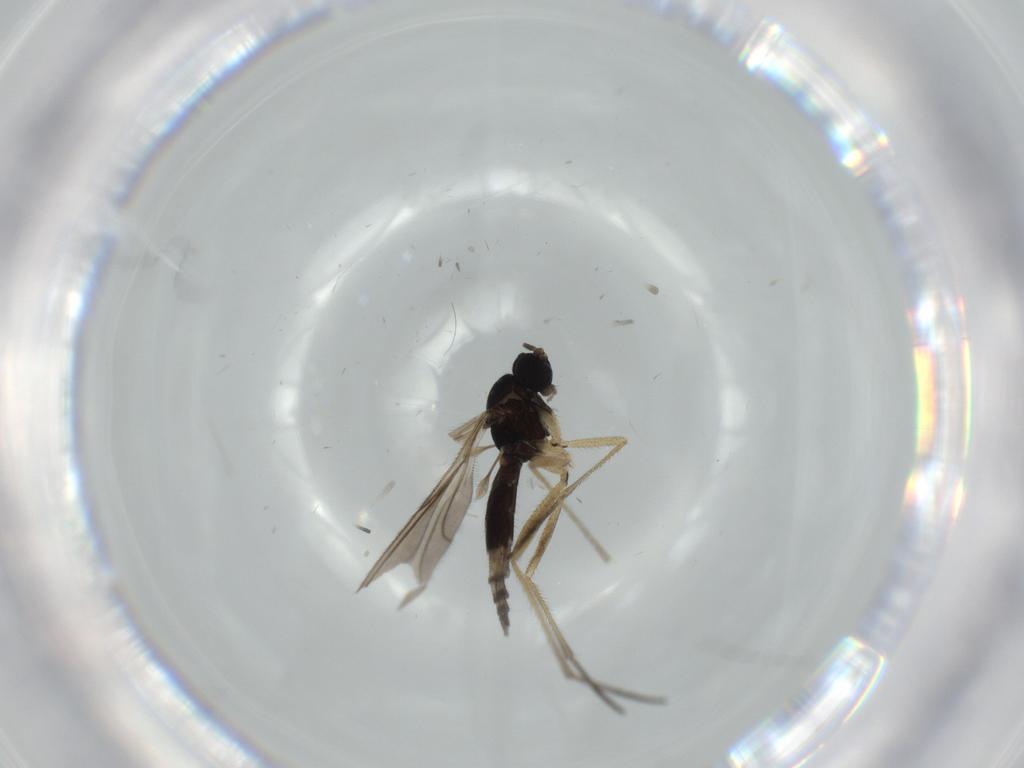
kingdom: Animalia
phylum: Arthropoda
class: Insecta
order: Diptera
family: Sciaridae
